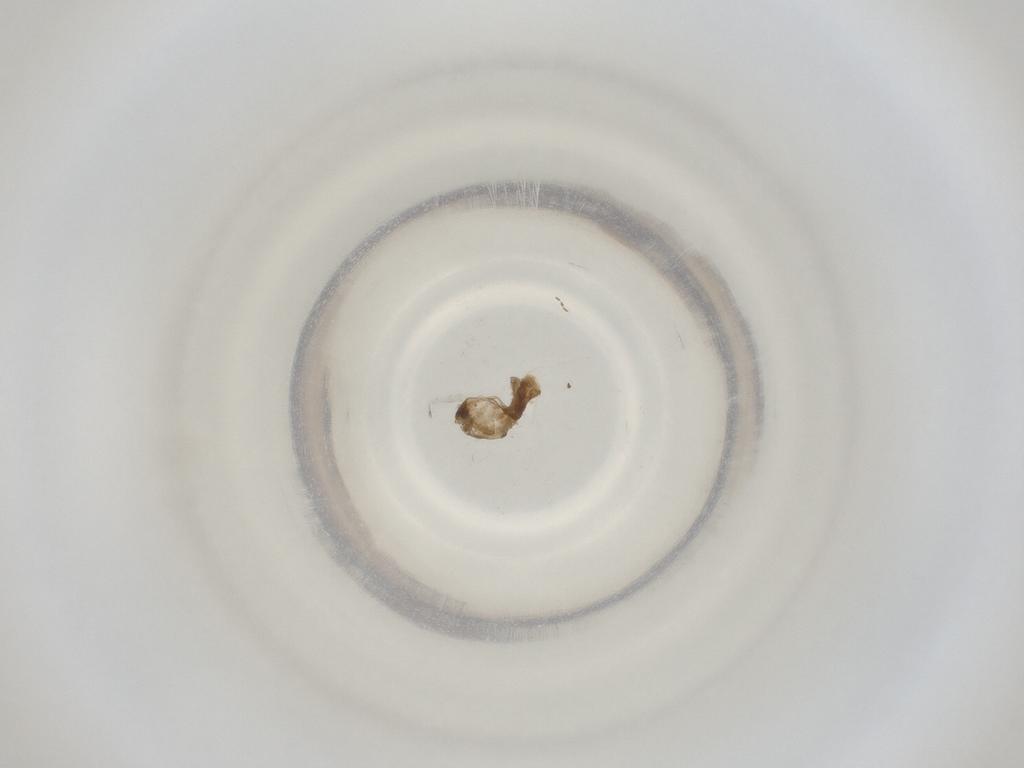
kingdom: Animalia
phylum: Arthropoda
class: Insecta
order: Diptera
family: Cecidomyiidae
